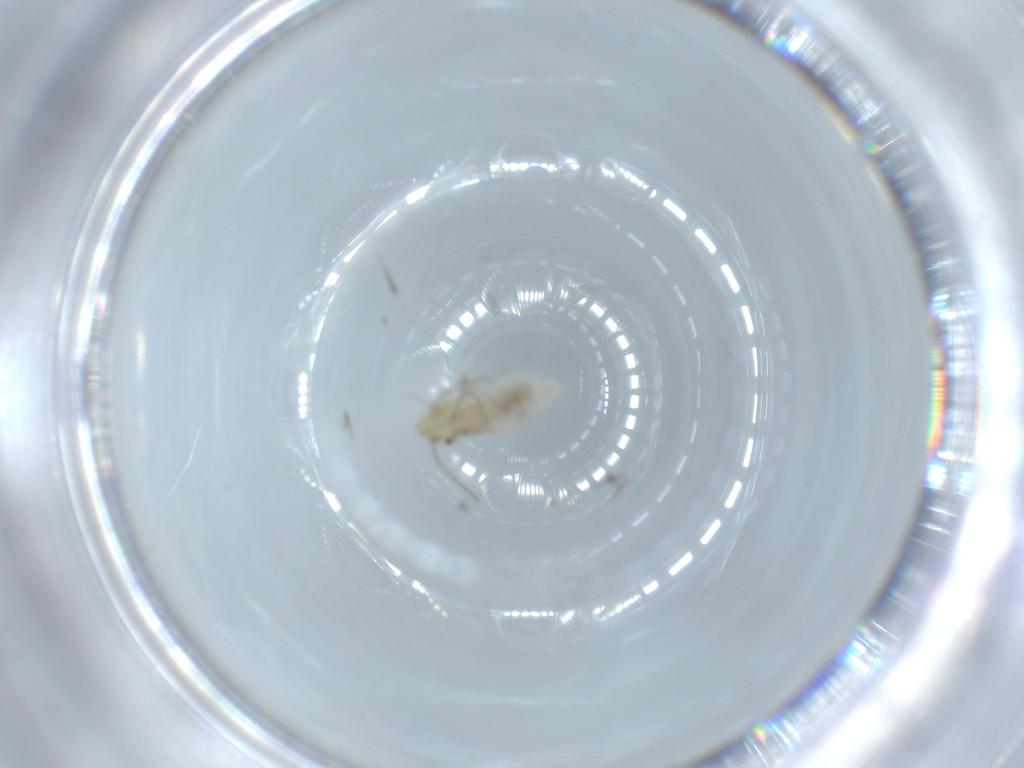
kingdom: Animalia
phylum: Arthropoda
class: Insecta
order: Psocodea
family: Caeciliusidae
